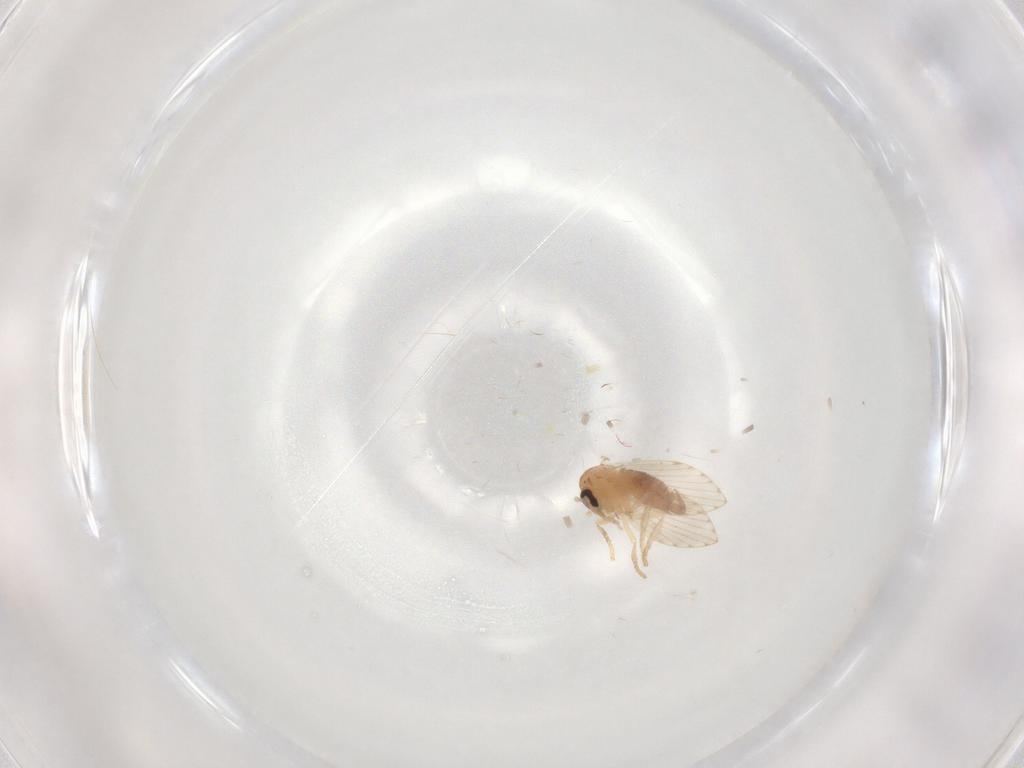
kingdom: Animalia
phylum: Arthropoda
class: Insecta
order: Diptera
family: Psychodidae
